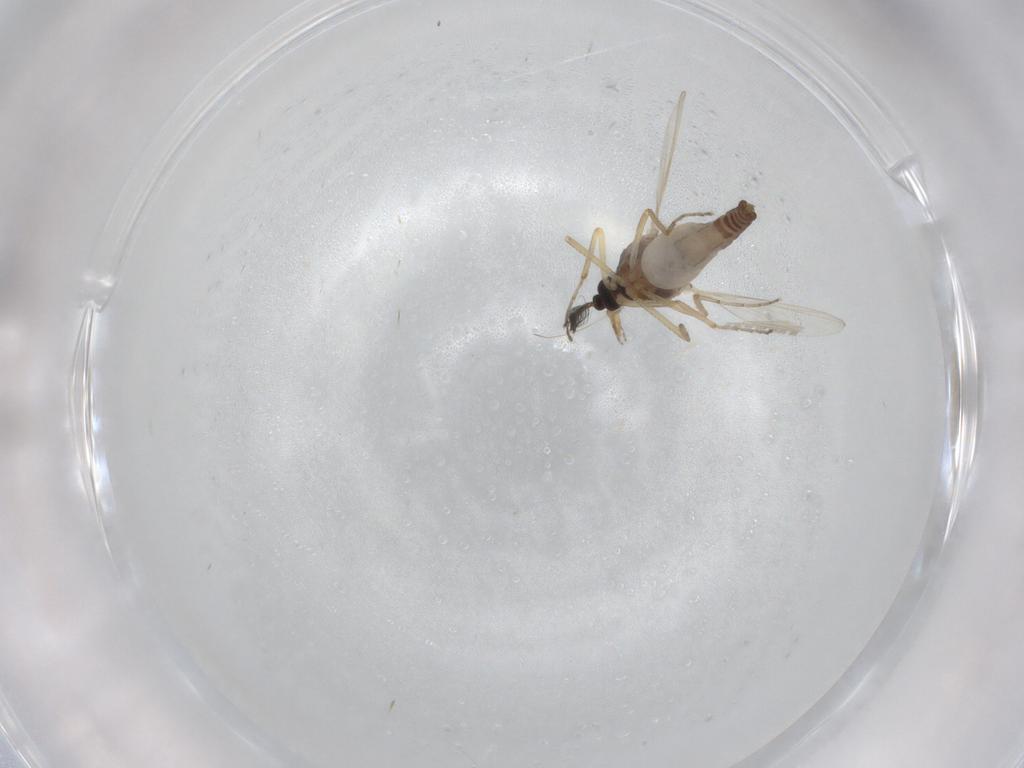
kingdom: Animalia
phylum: Arthropoda
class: Insecta
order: Diptera
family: Ceratopogonidae
